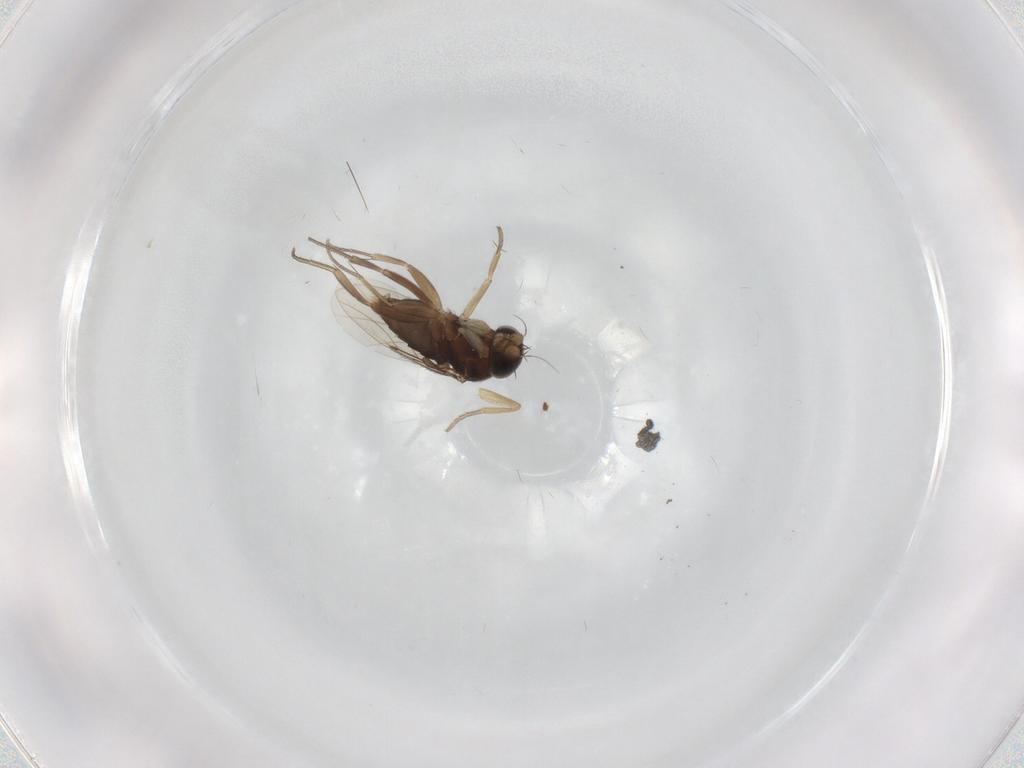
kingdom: Animalia
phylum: Arthropoda
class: Insecta
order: Diptera
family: Phoridae
